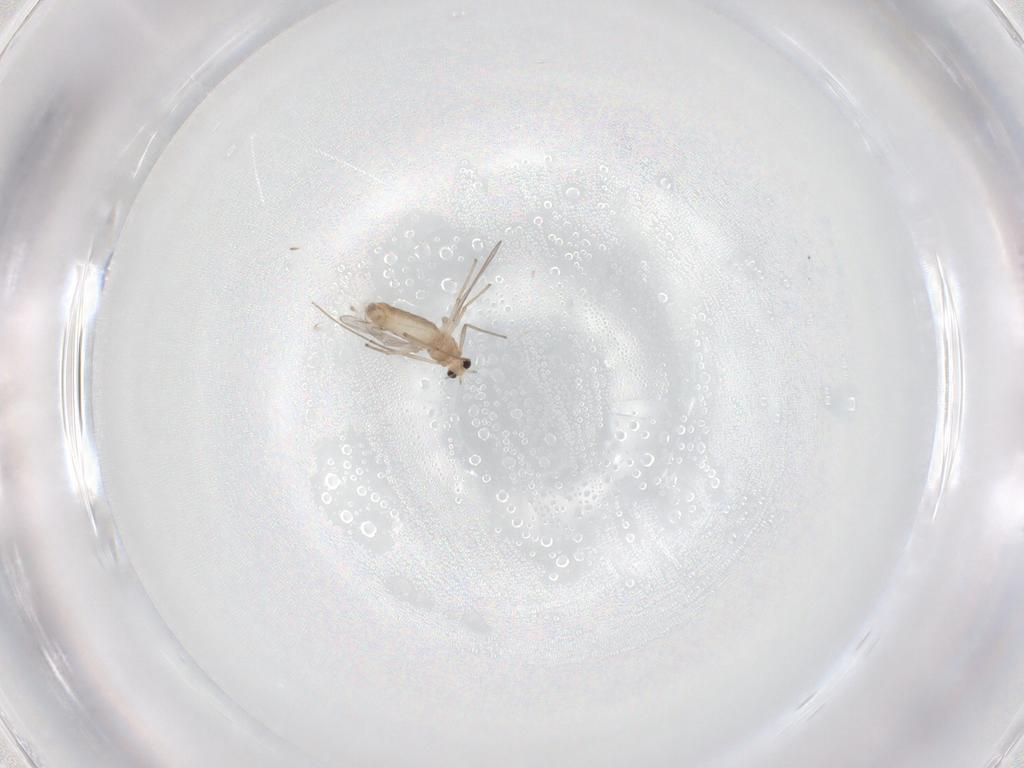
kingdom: Animalia
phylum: Arthropoda
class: Insecta
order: Diptera
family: Chironomidae
